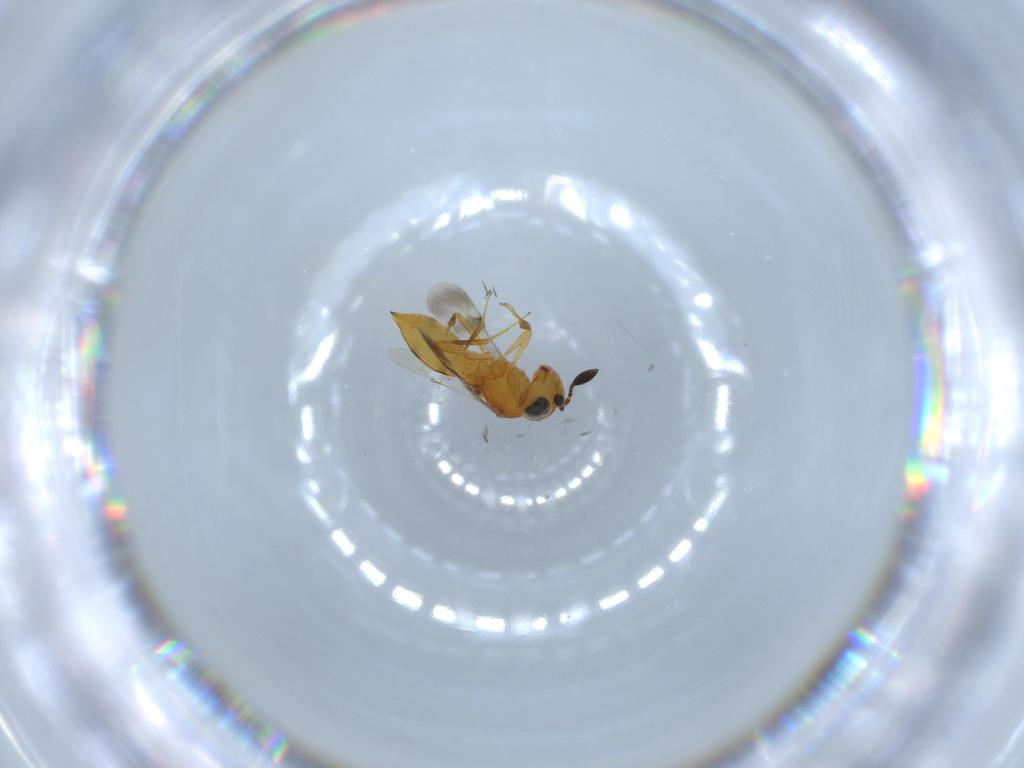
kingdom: Animalia
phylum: Arthropoda
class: Insecta
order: Hymenoptera
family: Scelionidae
